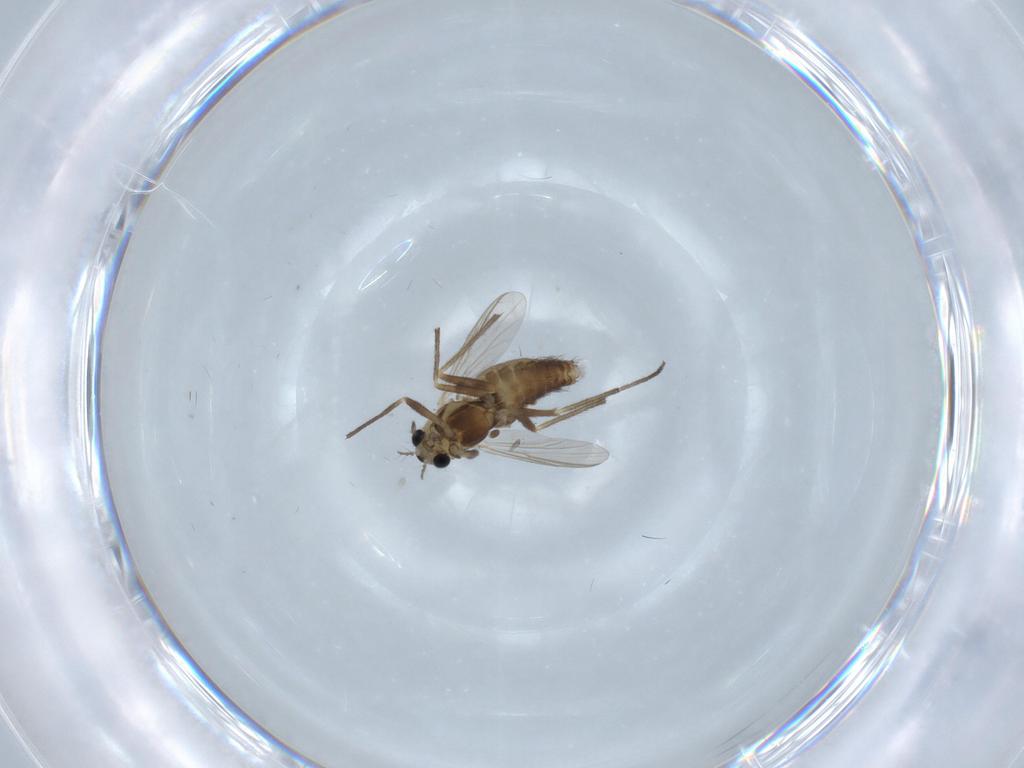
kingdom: Animalia
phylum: Arthropoda
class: Insecta
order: Diptera
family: Chironomidae
